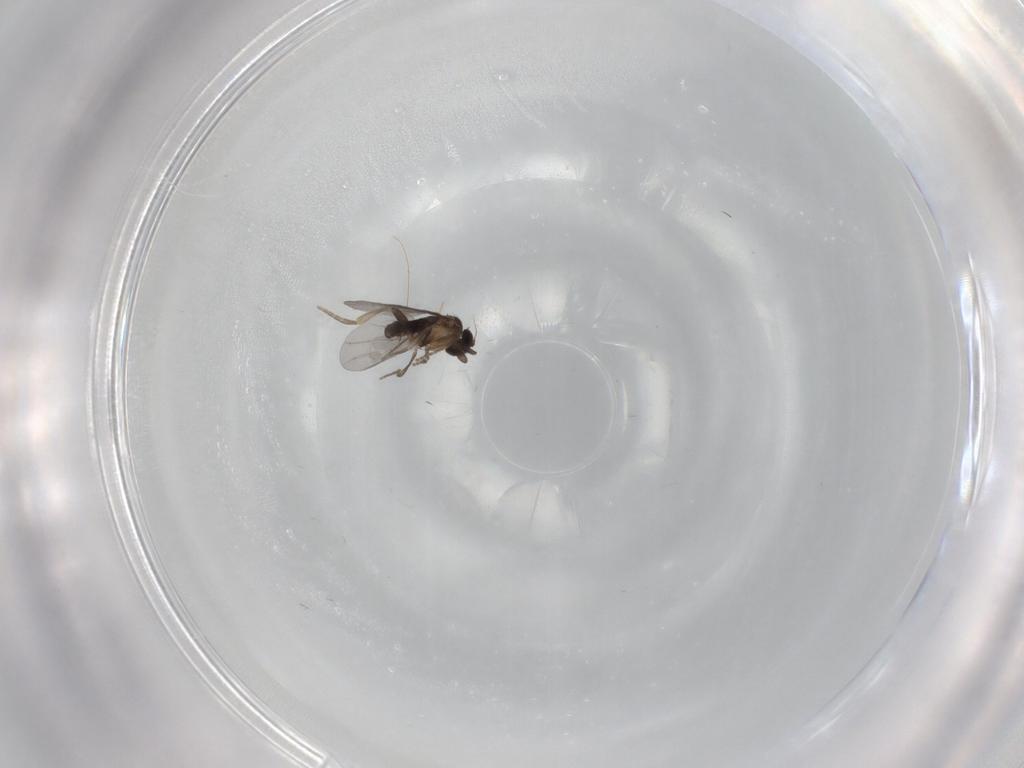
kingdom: Animalia
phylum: Arthropoda
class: Insecta
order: Diptera
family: Phoridae
